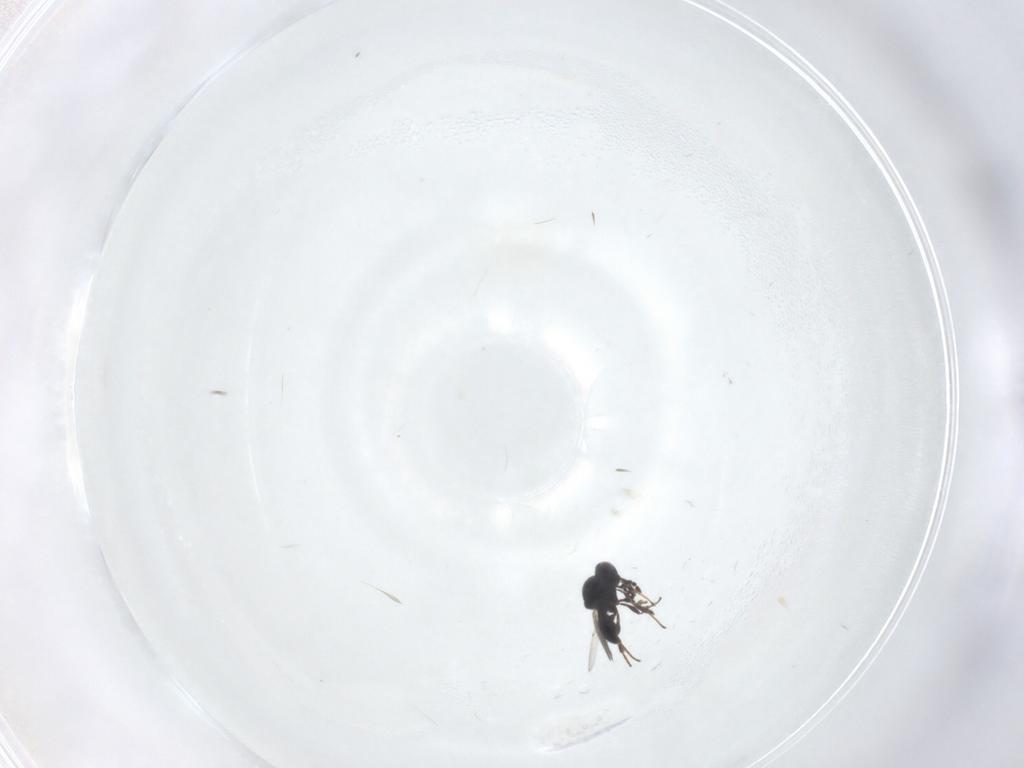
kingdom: Animalia
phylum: Arthropoda
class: Insecta
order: Hymenoptera
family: Platygastridae
